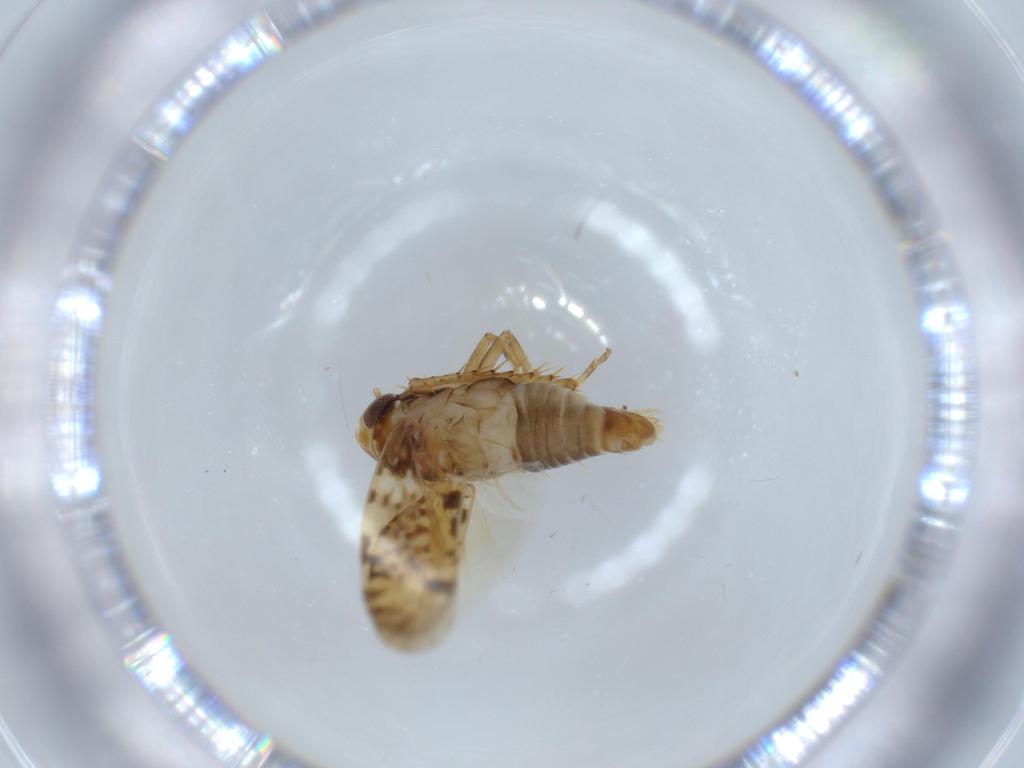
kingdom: Animalia
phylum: Arthropoda
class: Insecta
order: Hemiptera
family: Cicadellidae
